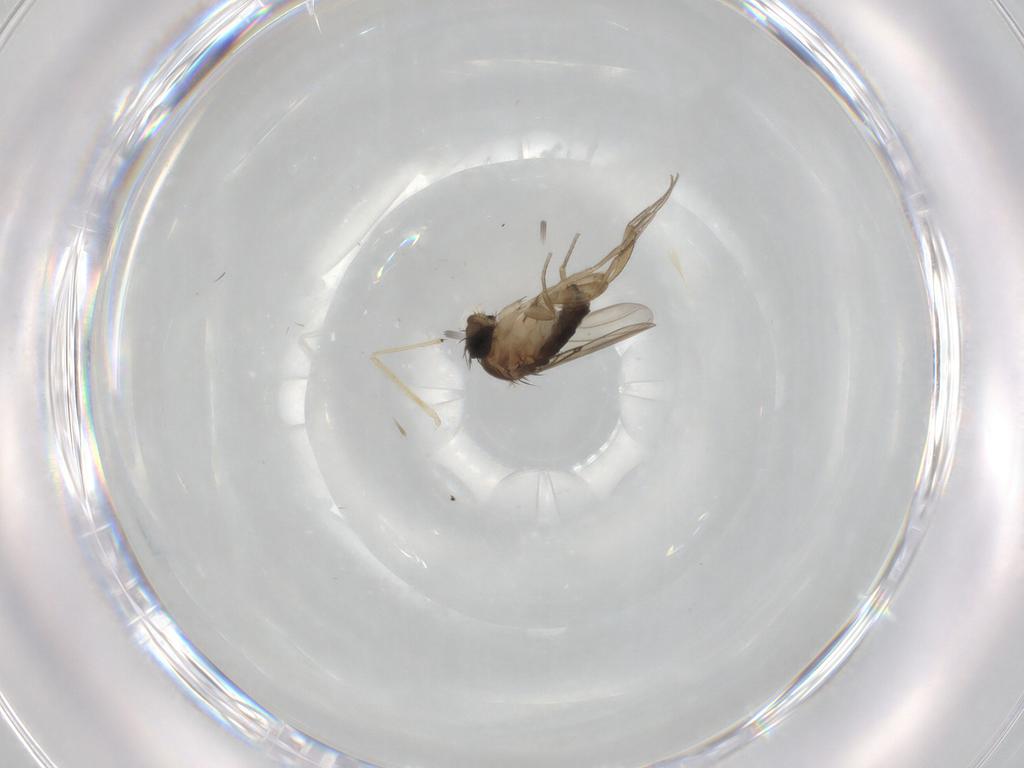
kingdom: Animalia
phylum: Arthropoda
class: Insecta
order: Diptera
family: Phoridae
